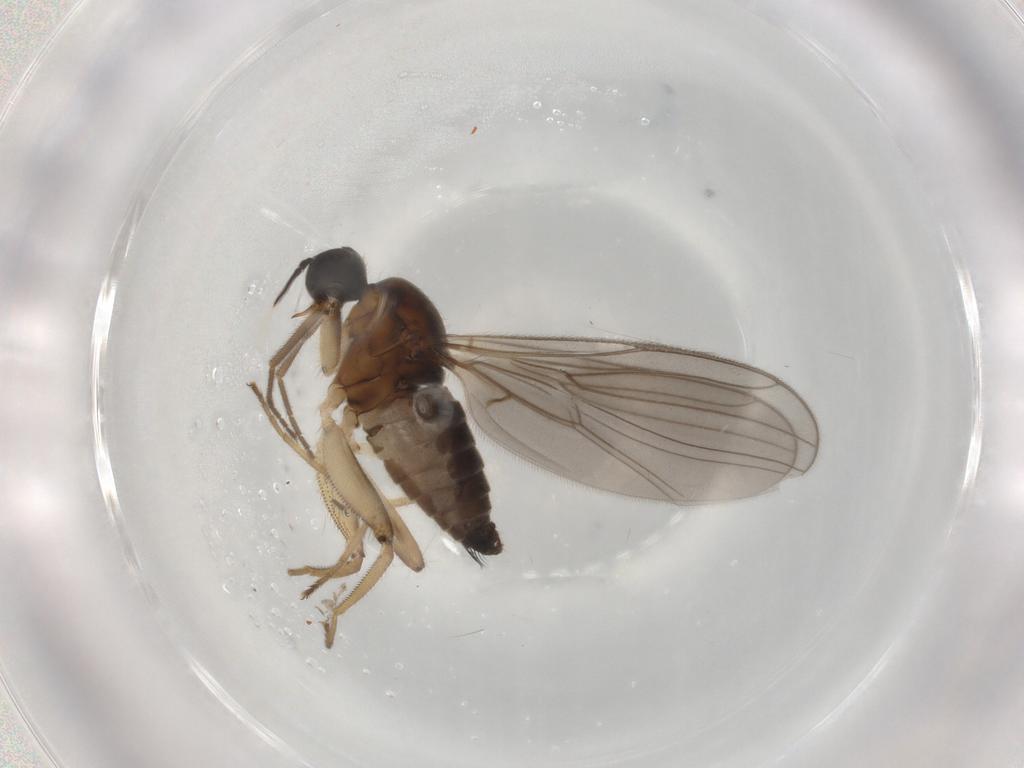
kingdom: Animalia
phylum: Arthropoda
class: Insecta
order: Diptera
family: Hybotidae
